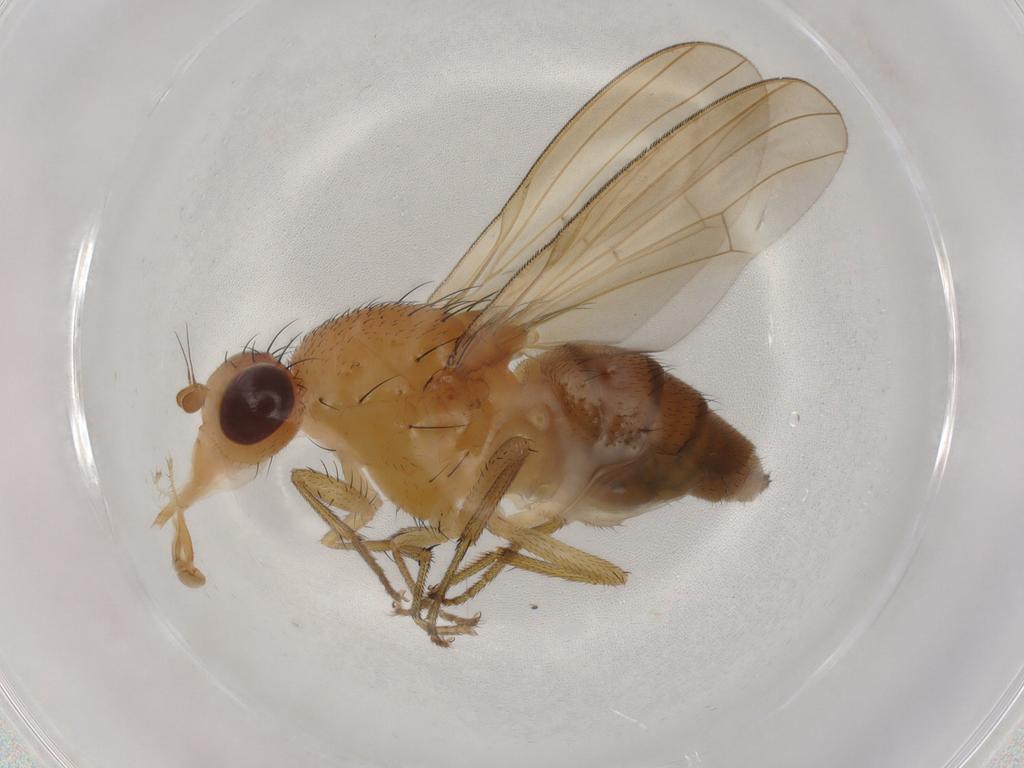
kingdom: Animalia
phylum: Arthropoda
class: Insecta
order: Diptera
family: Lauxaniidae
